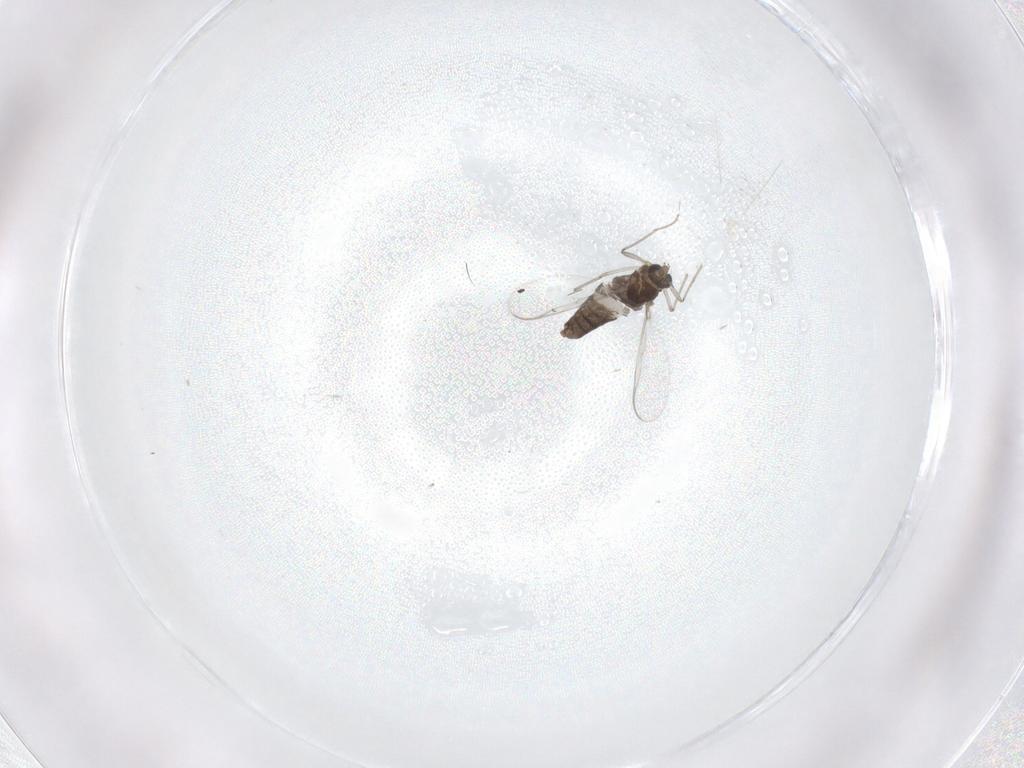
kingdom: Animalia
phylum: Arthropoda
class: Insecta
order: Diptera
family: Chironomidae
